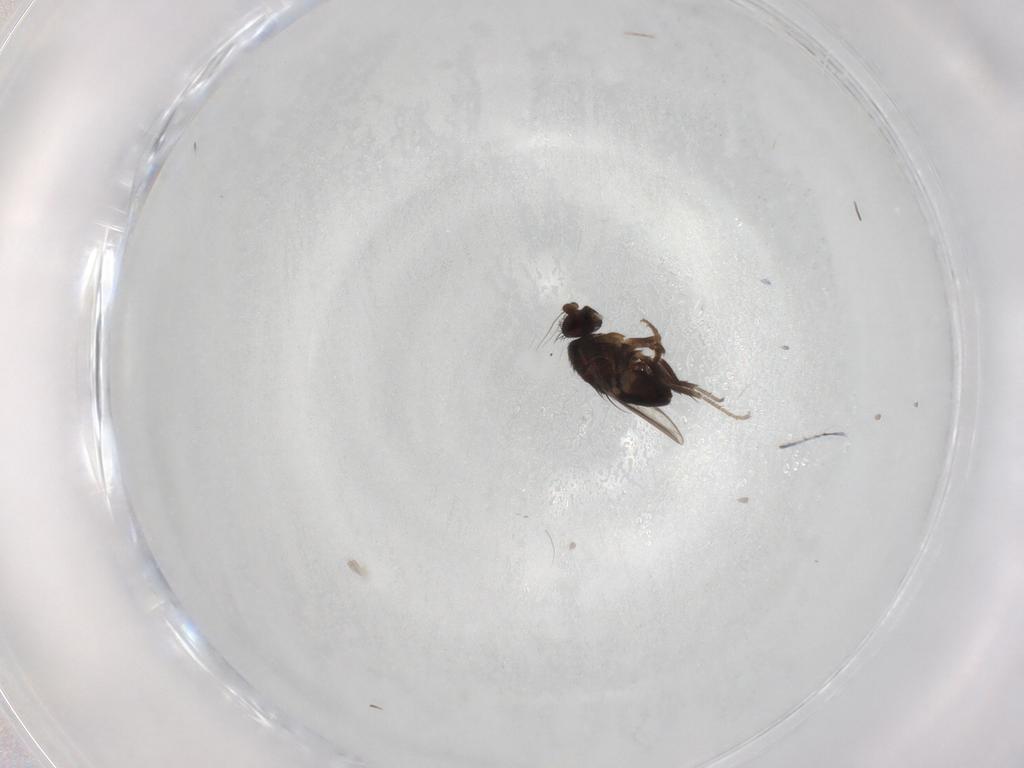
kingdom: Animalia
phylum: Arthropoda
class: Insecta
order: Diptera
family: Sphaeroceridae
